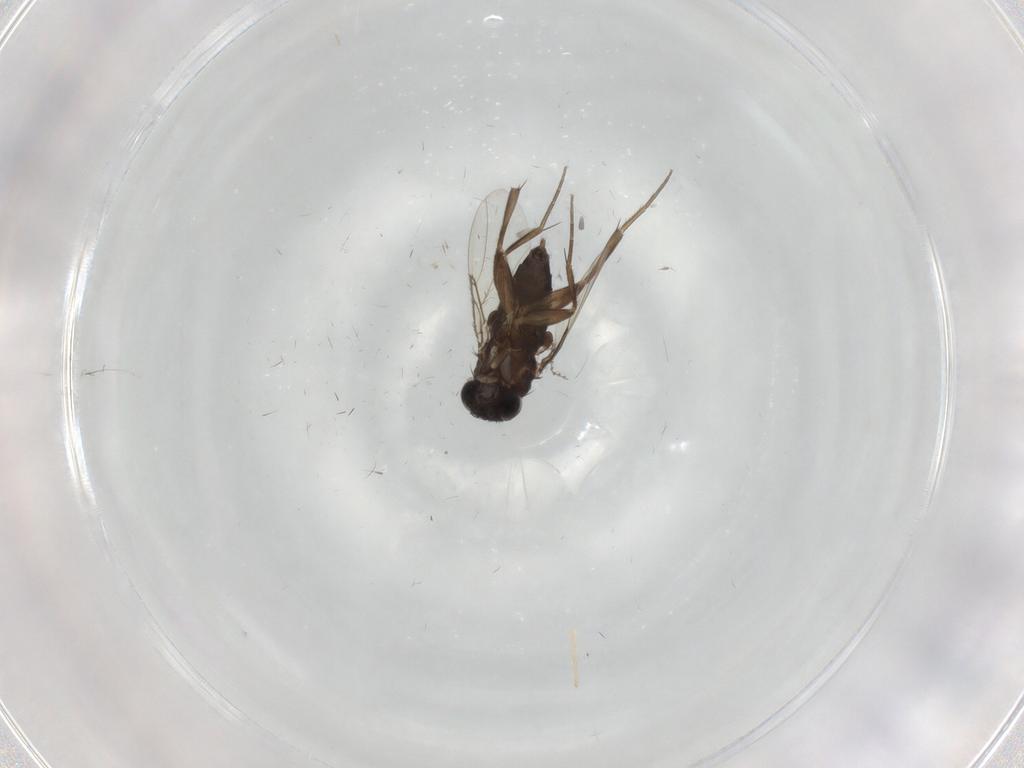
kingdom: Animalia
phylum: Arthropoda
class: Insecta
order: Diptera
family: Phoridae
